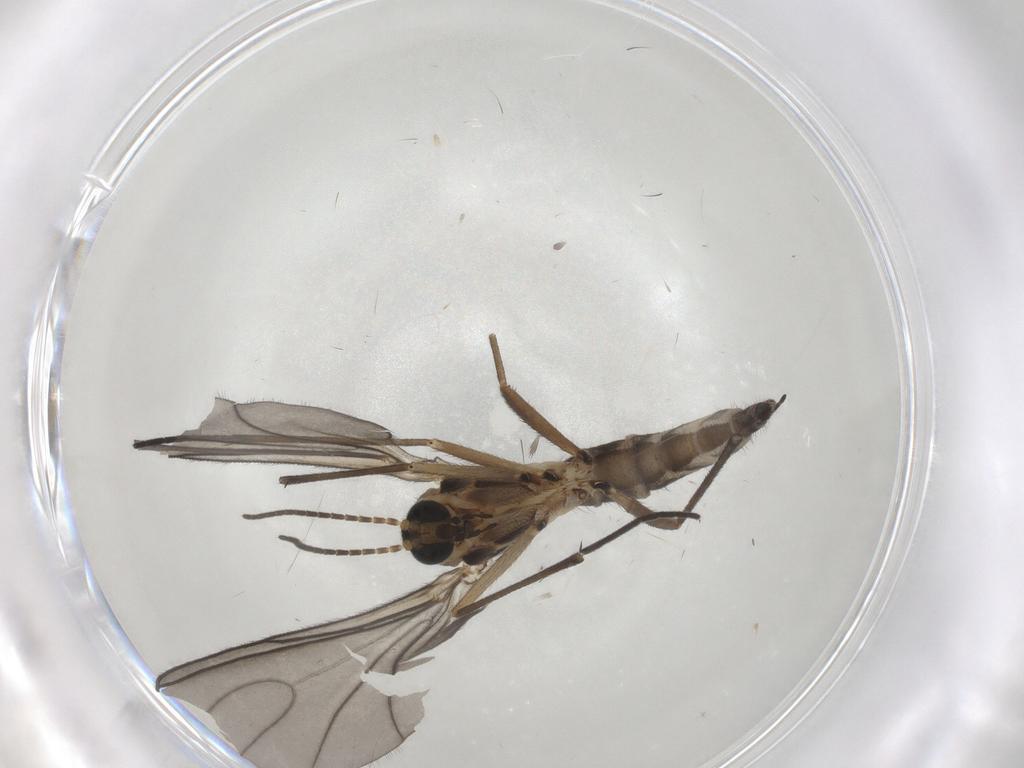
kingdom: Animalia
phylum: Arthropoda
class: Insecta
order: Diptera
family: Sciaridae
